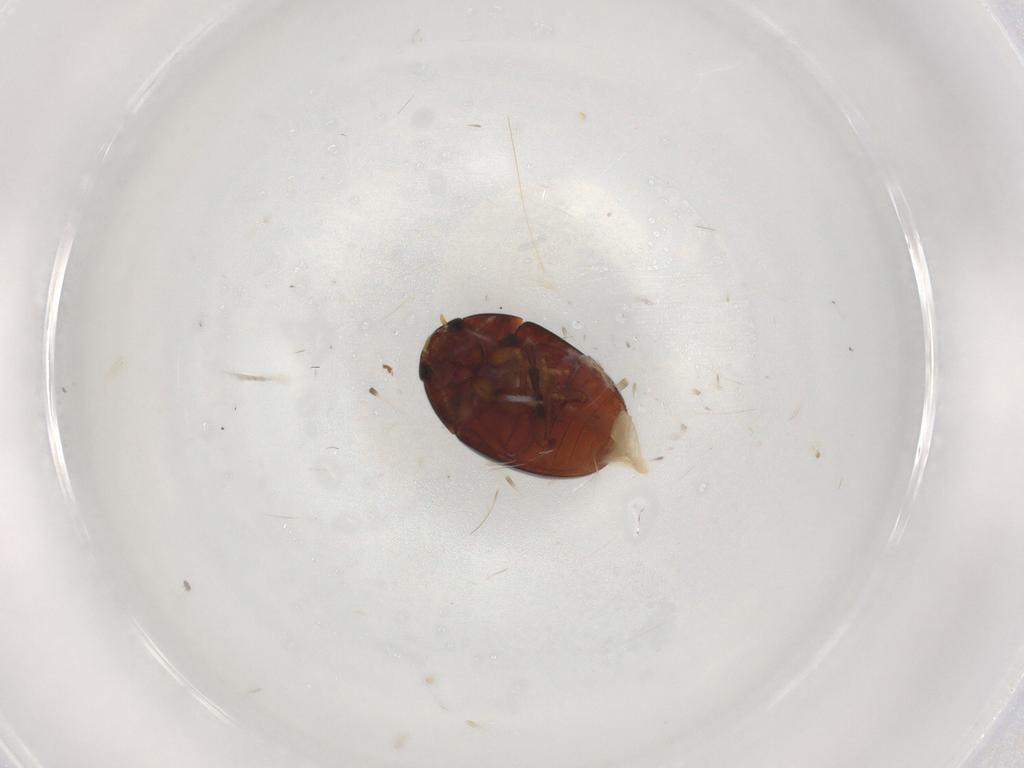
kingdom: Animalia
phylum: Arthropoda
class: Insecta
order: Coleoptera
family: Phalacridae
